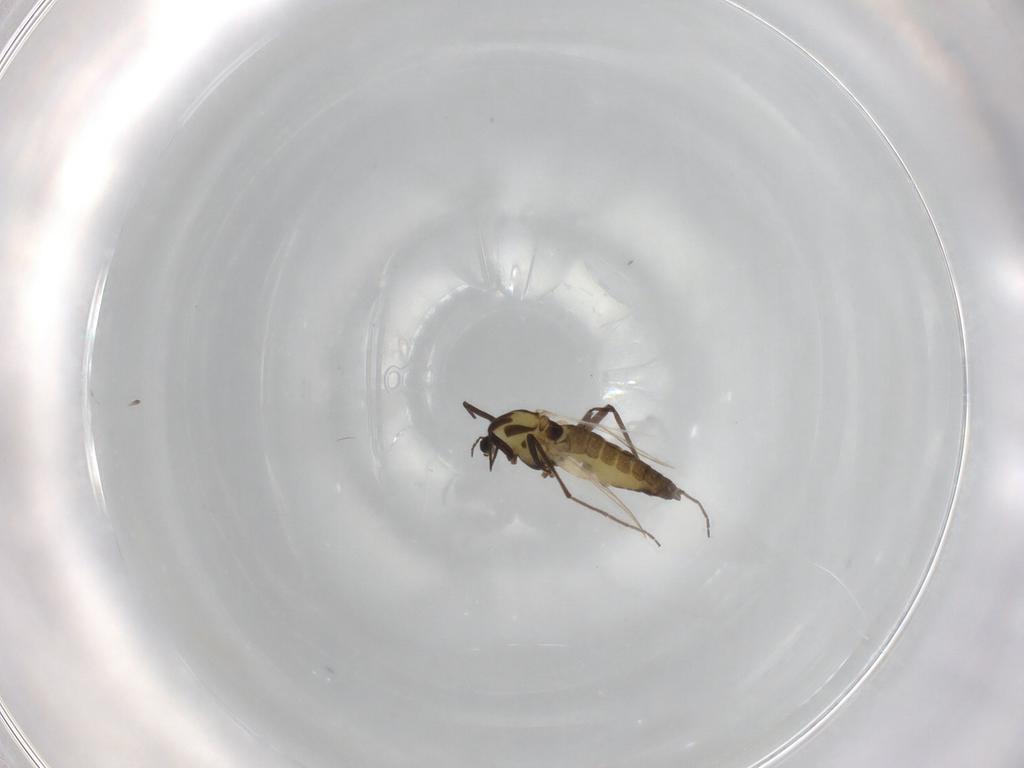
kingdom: Animalia
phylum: Arthropoda
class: Insecta
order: Diptera
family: Chironomidae
